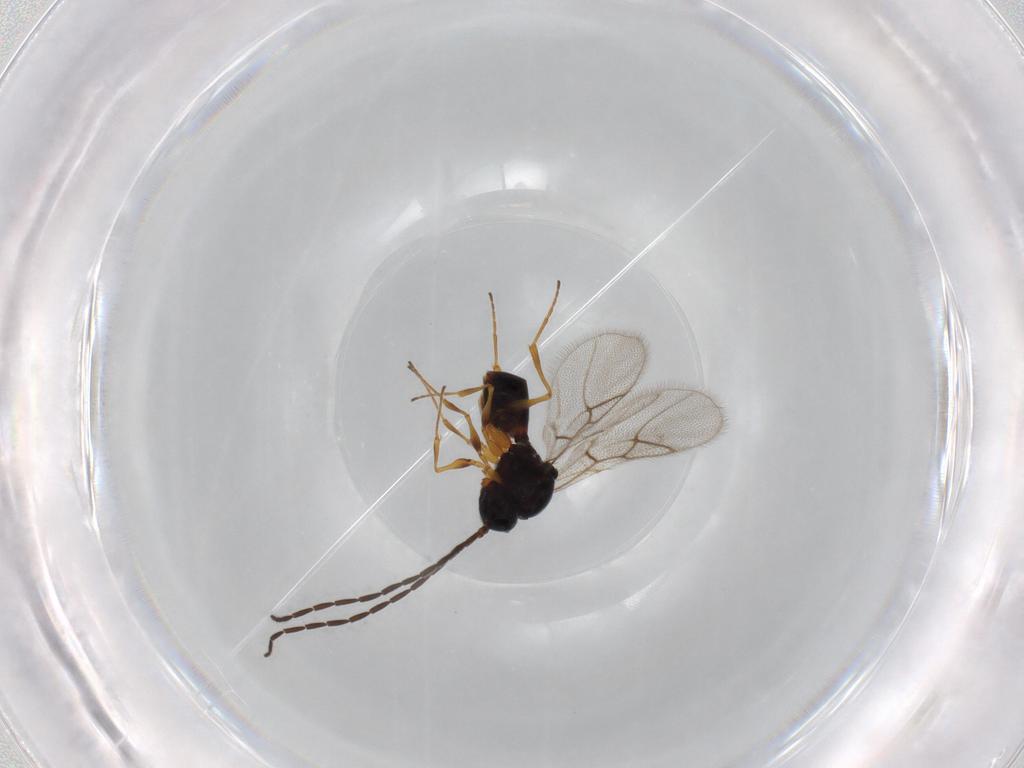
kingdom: Animalia
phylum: Arthropoda
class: Insecta
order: Hymenoptera
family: Figitidae
